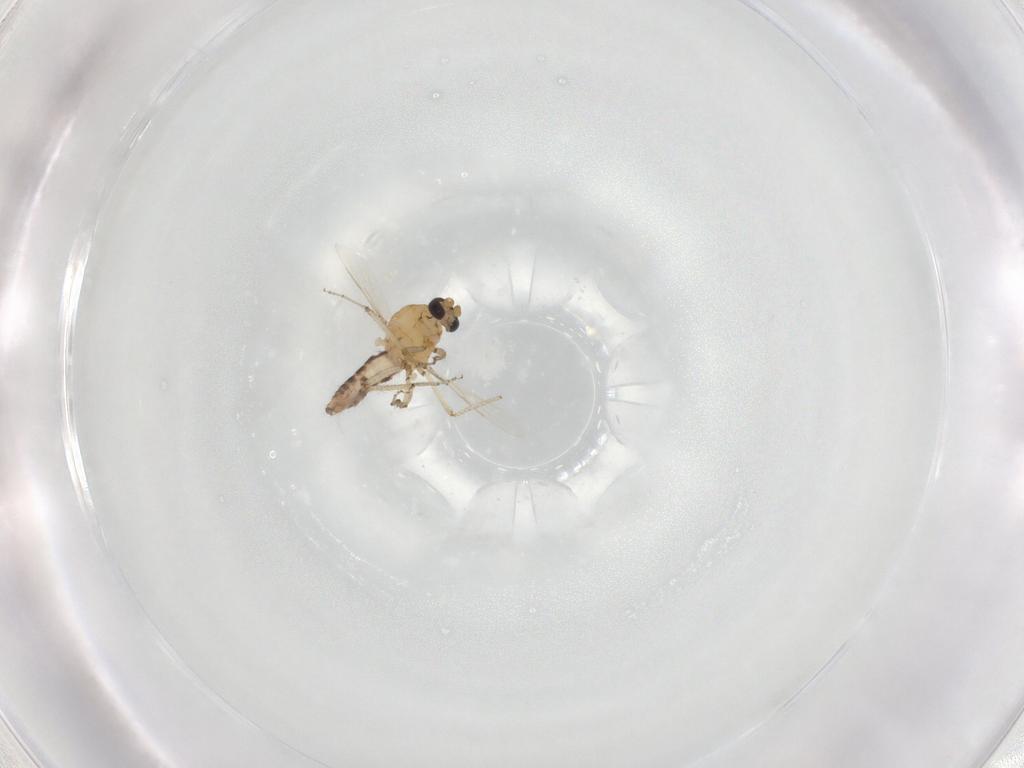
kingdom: Animalia
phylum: Arthropoda
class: Insecta
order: Diptera
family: Ceratopogonidae
